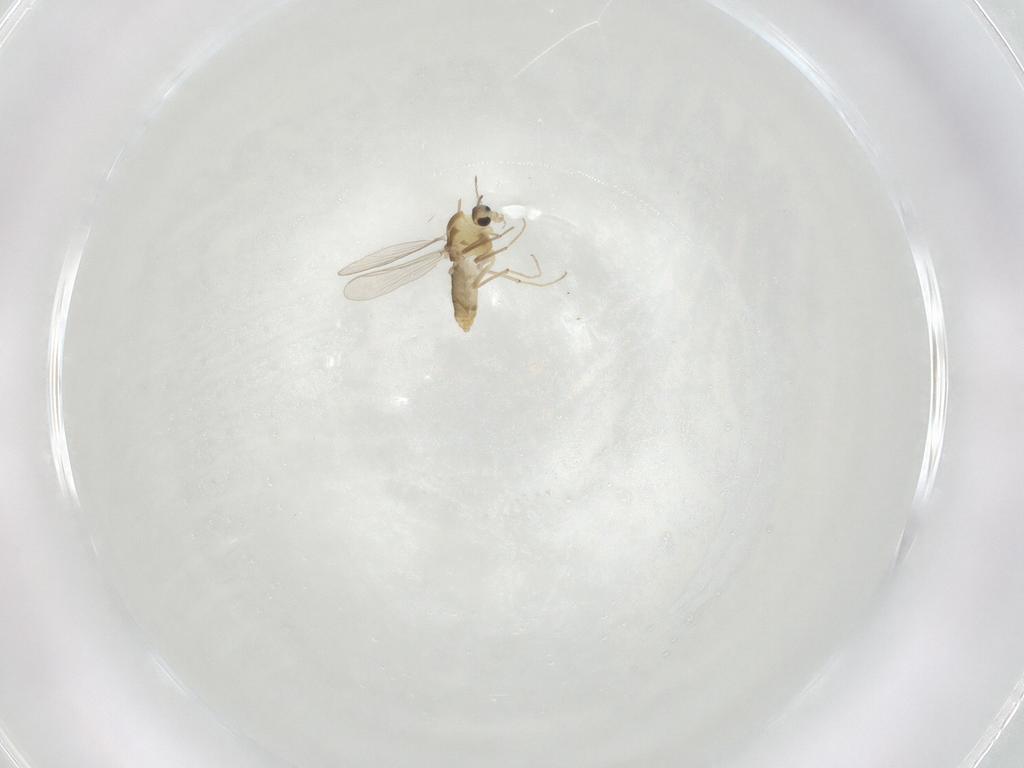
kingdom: Animalia
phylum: Arthropoda
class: Insecta
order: Diptera
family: Chironomidae
